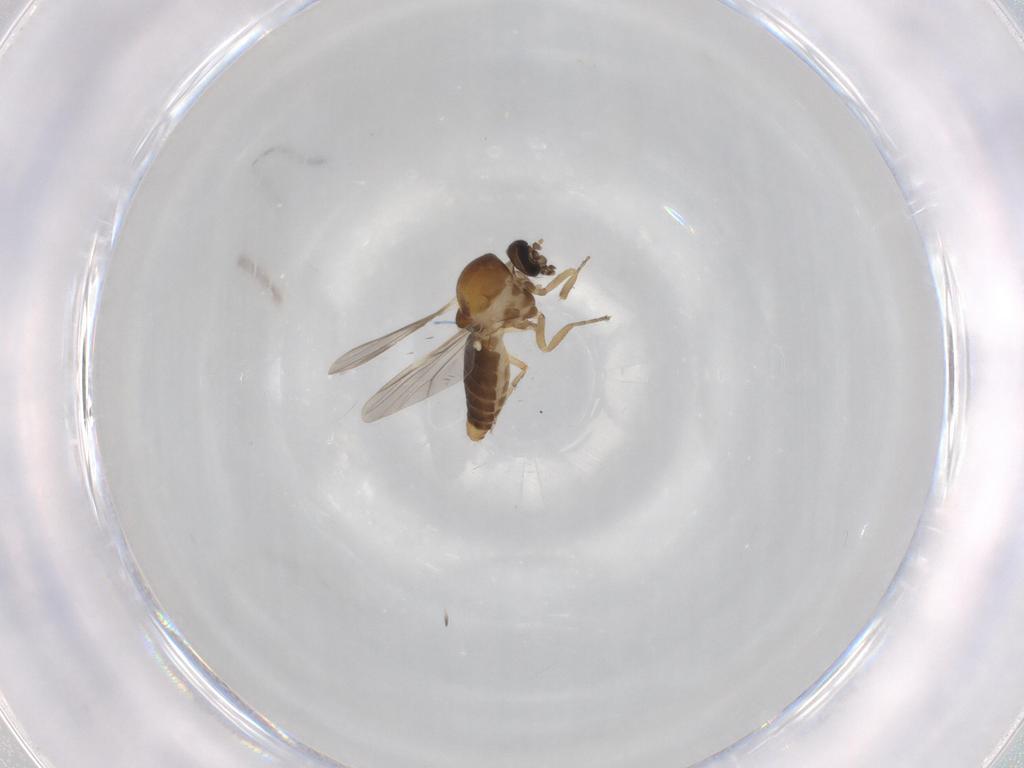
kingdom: Animalia
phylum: Arthropoda
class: Insecta
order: Diptera
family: Ceratopogonidae
